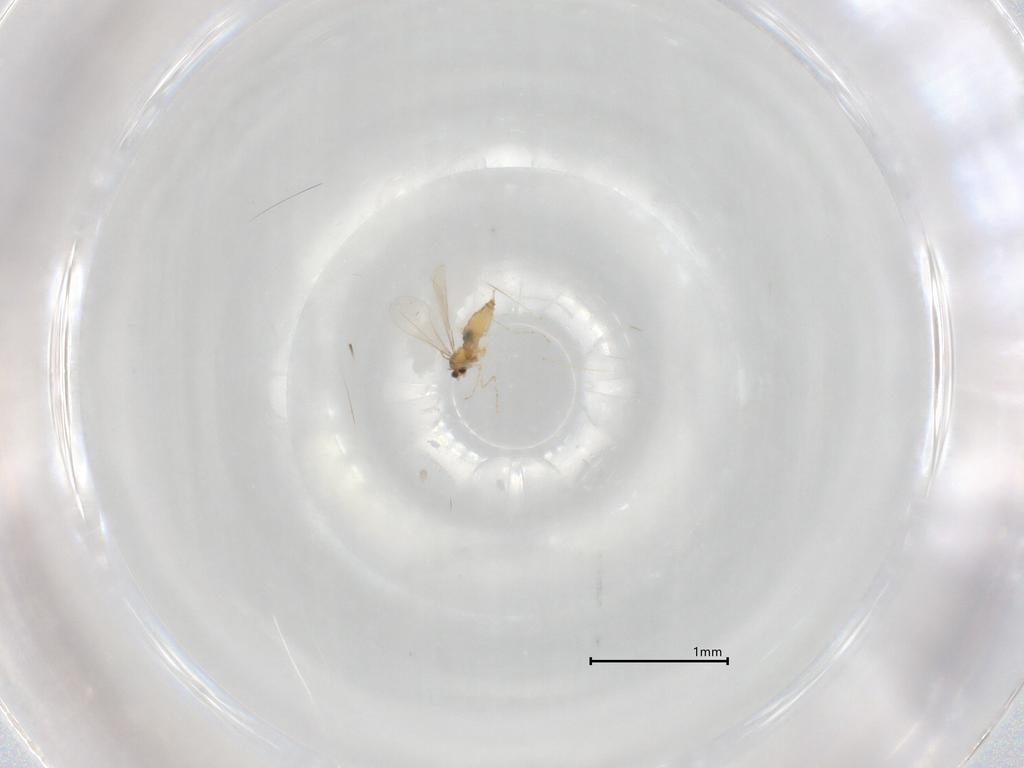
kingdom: Animalia
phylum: Arthropoda
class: Insecta
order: Diptera
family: Cecidomyiidae
